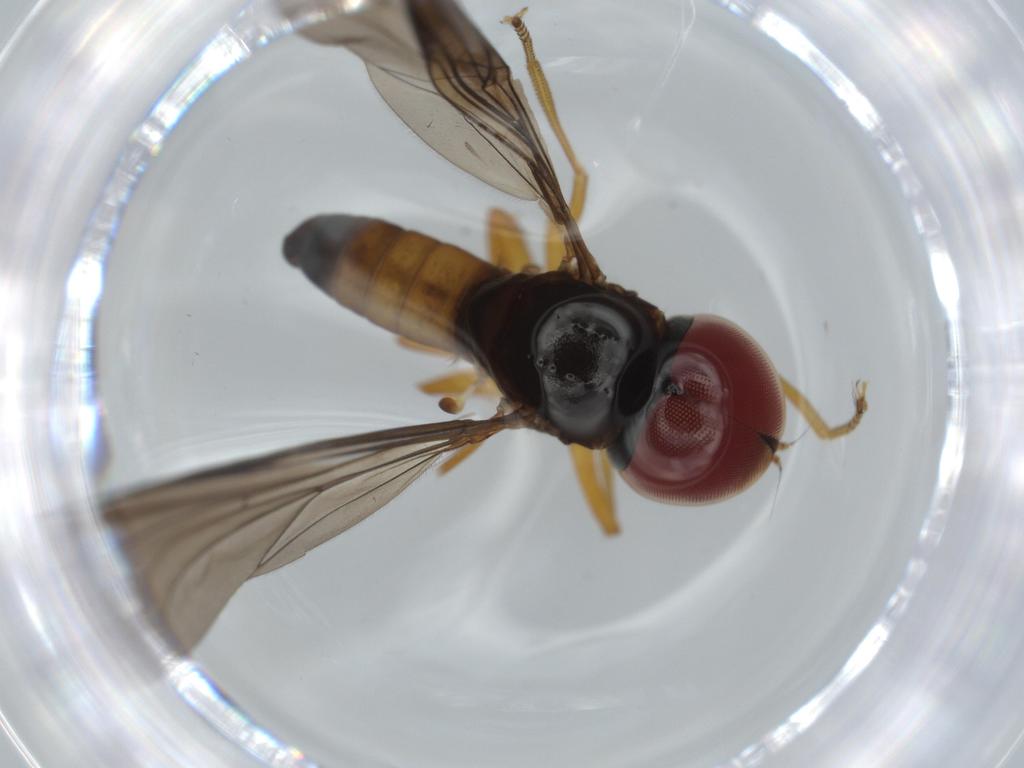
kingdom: Animalia
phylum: Arthropoda
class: Insecta
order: Diptera
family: Pipunculidae
